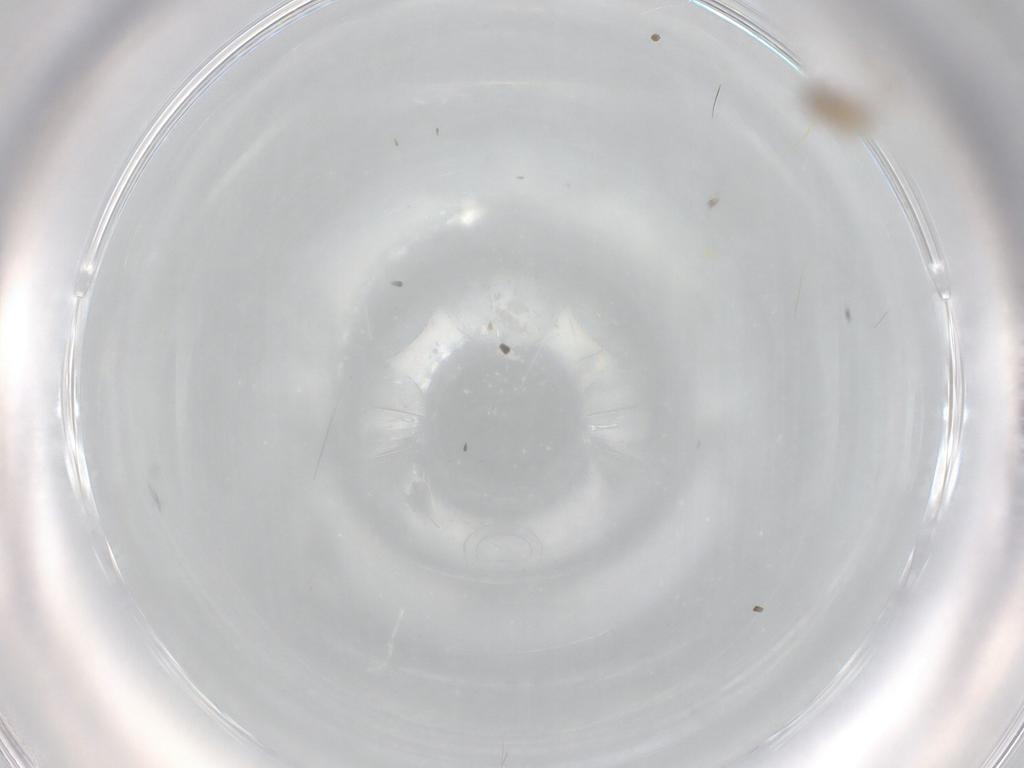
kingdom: Animalia
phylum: Arthropoda
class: Insecta
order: Diptera
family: Cecidomyiidae
